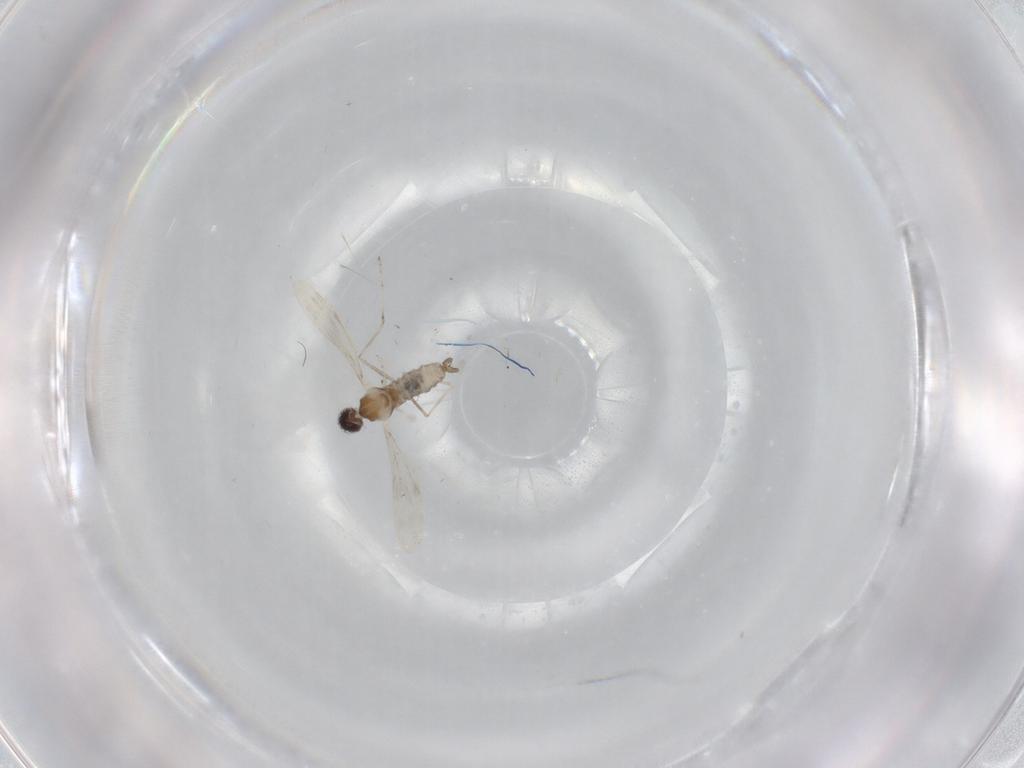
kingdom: Animalia
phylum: Arthropoda
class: Insecta
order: Diptera
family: Cecidomyiidae
